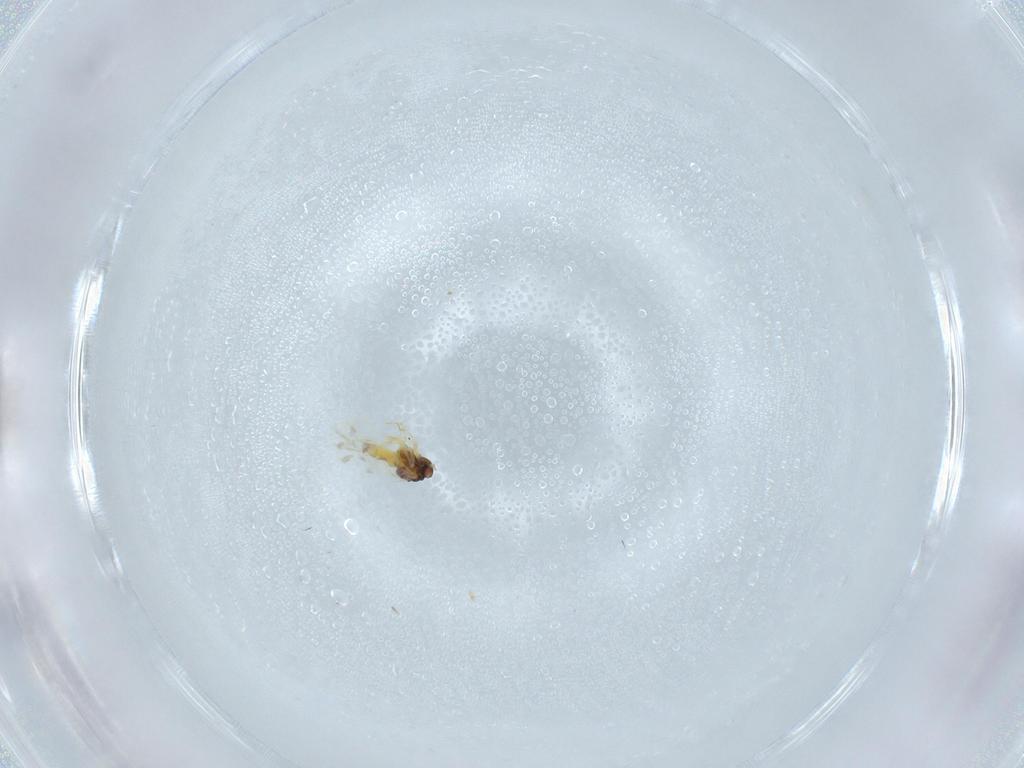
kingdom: Animalia
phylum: Arthropoda
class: Insecta
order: Hemiptera
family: Aleyrodidae
